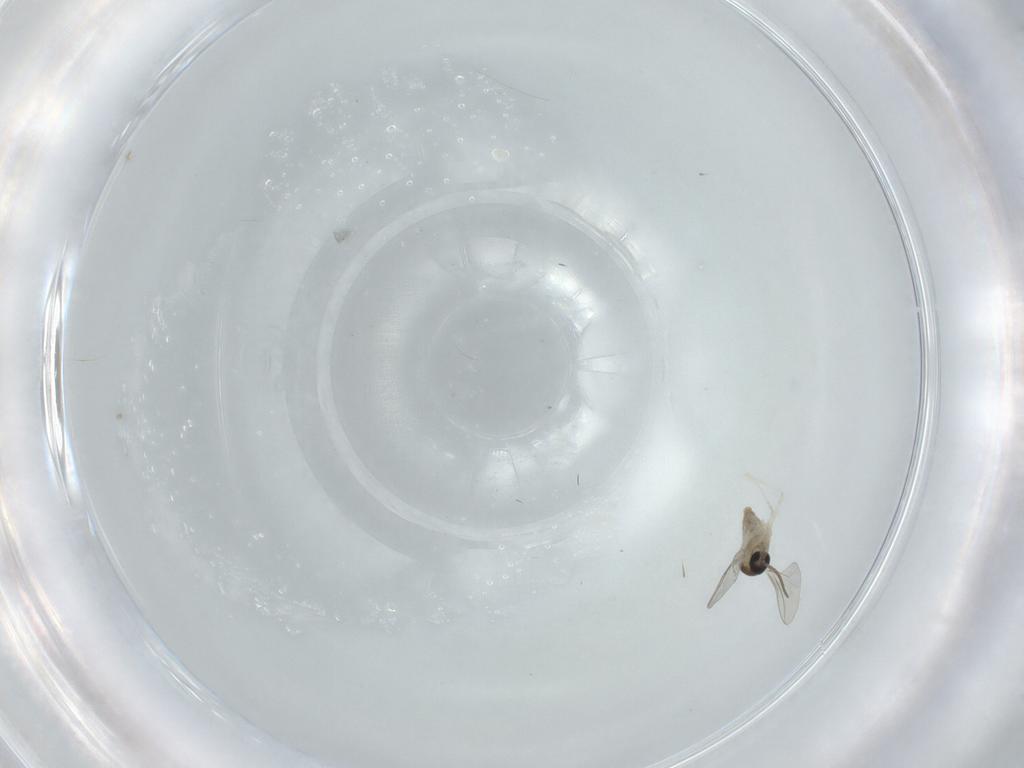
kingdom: Animalia
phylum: Arthropoda
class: Insecta
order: Diptera
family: Cecidomyiidae
